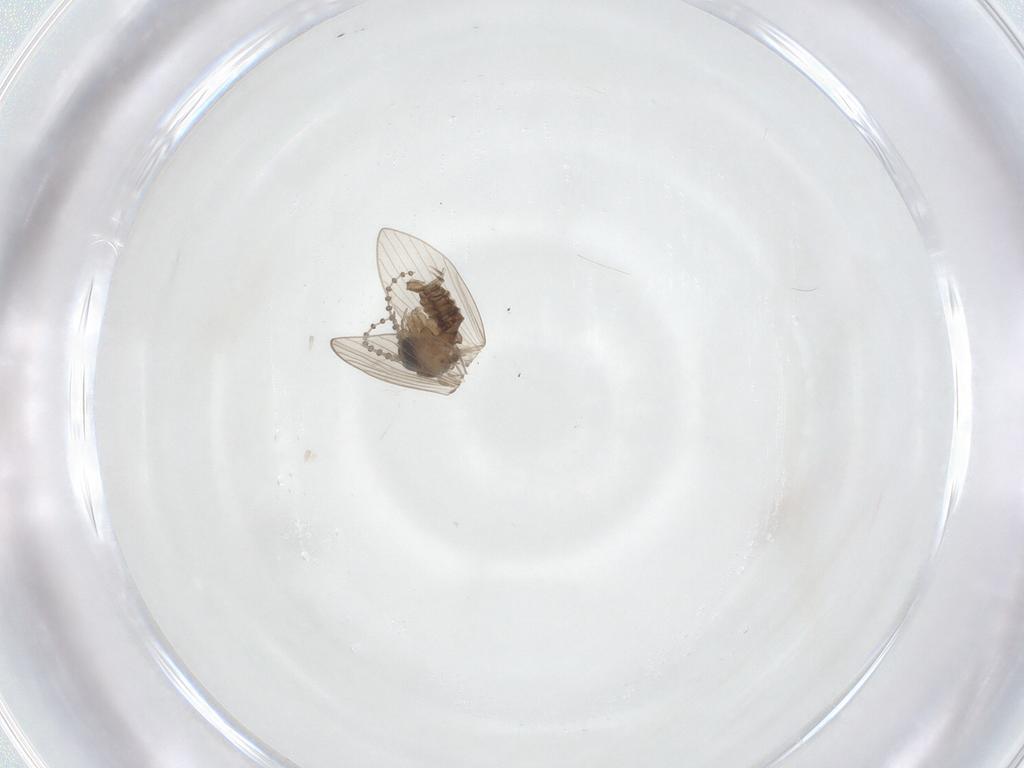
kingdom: Animalia
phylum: Arthropoda
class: Insecta
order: Diptera
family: Psychodidae
